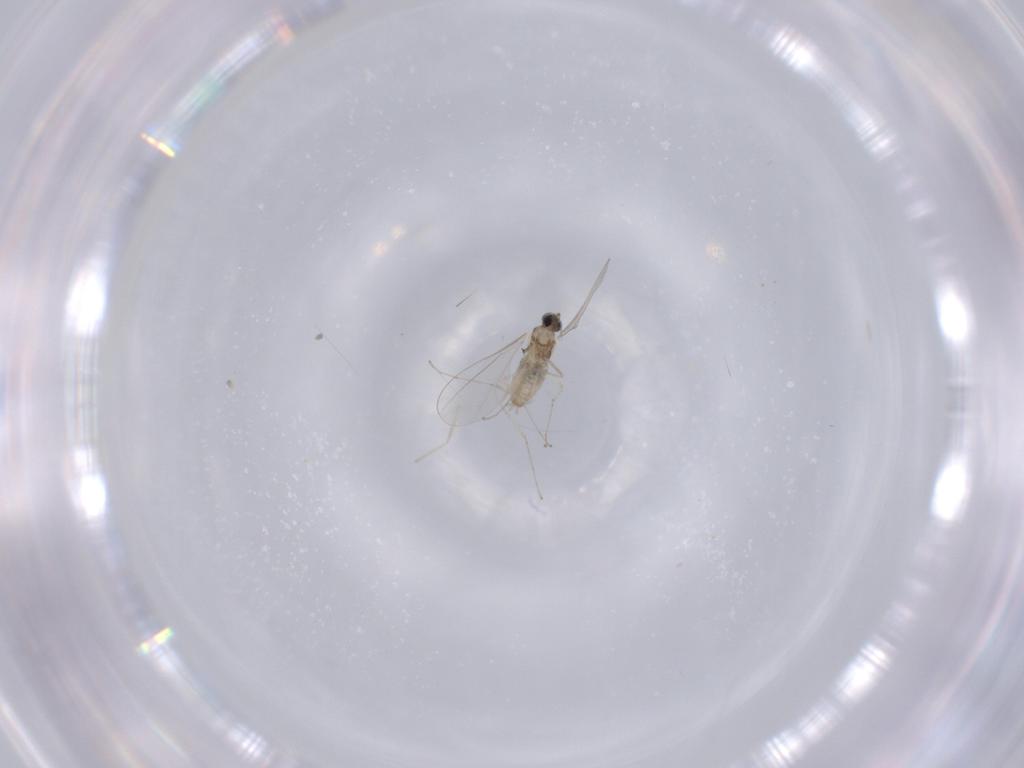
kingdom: Animalia
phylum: Arthropoda
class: Insecta
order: Diptera
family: Cecidomyiidae
